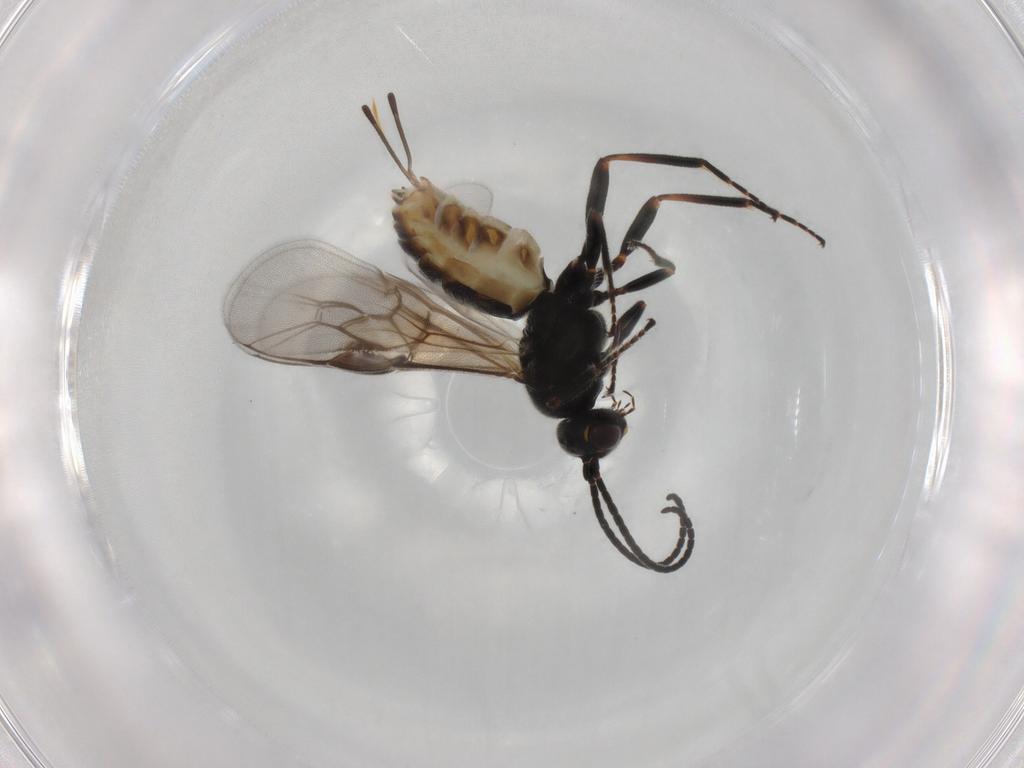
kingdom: Animalia
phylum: Arthropoda
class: Insecta
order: Hymenoptera
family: Braconidae
